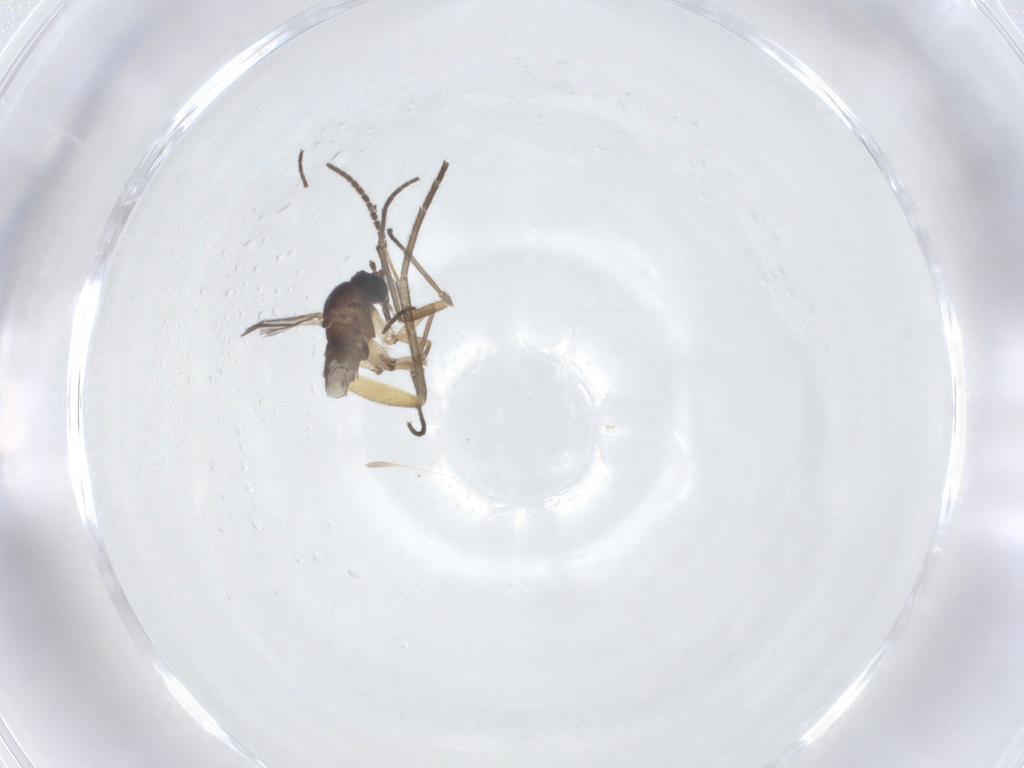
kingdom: Animalia
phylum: Arthropoda
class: Insecta
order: Diptera
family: Sciaridae
